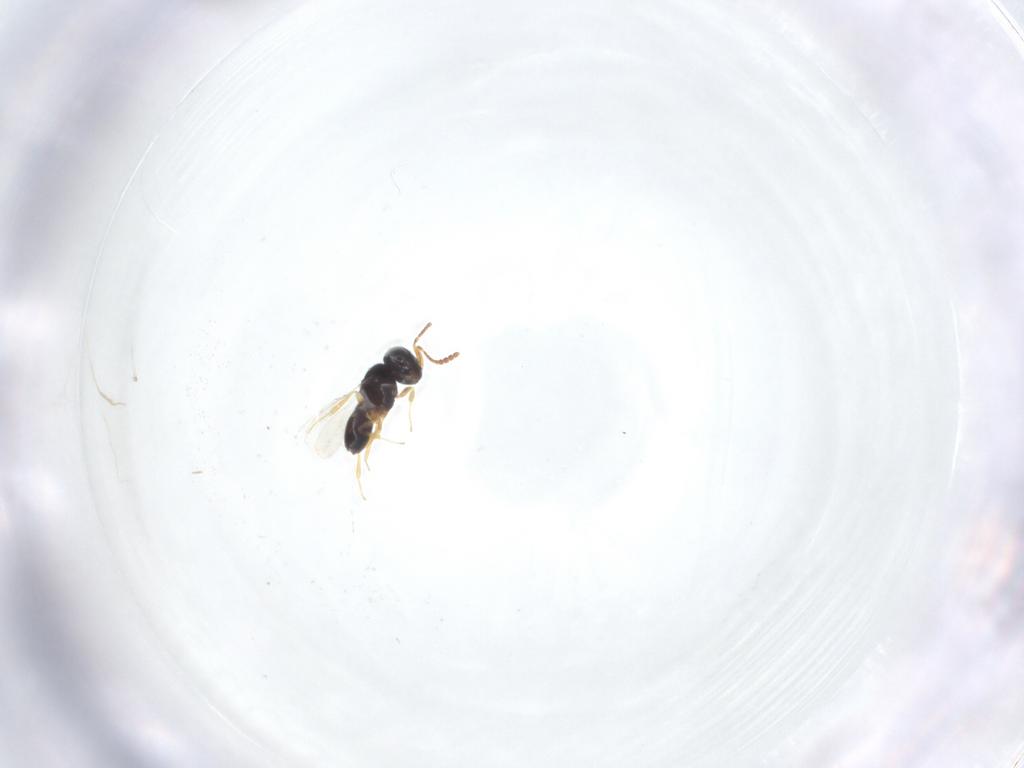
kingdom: Animalia
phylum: Arthropoda
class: Insecta
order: Hymenoptera
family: Scelionidae
